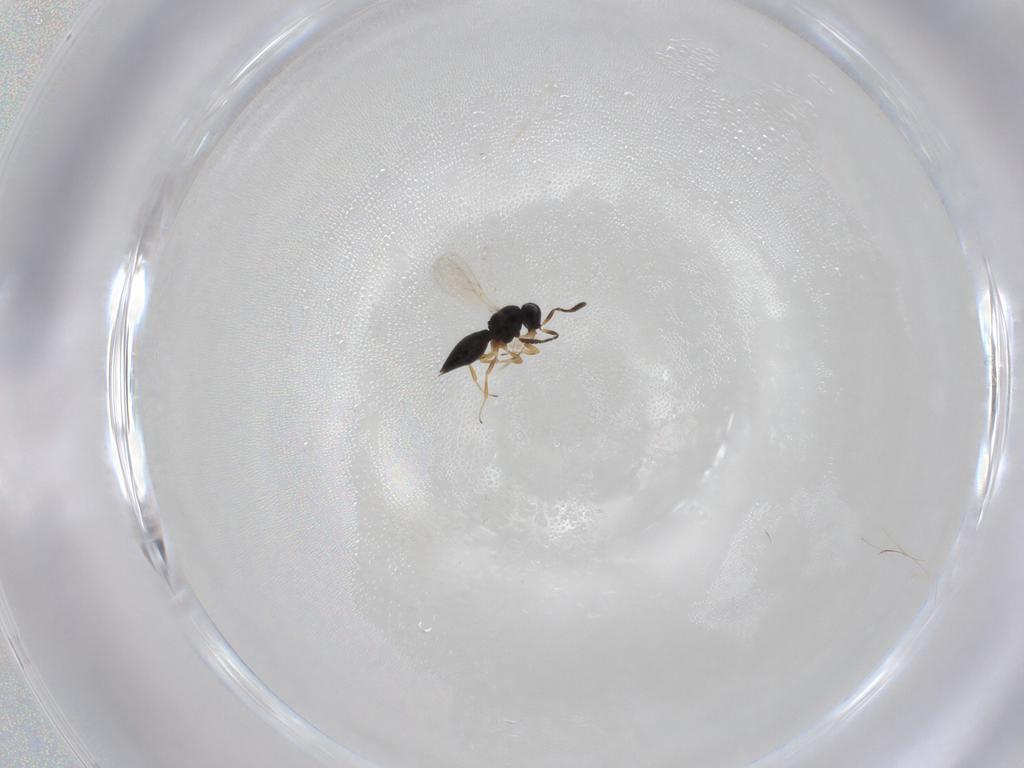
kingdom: Animalia
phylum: Arthropoda
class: Insecta
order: Hymenoptera
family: Scelionidae
